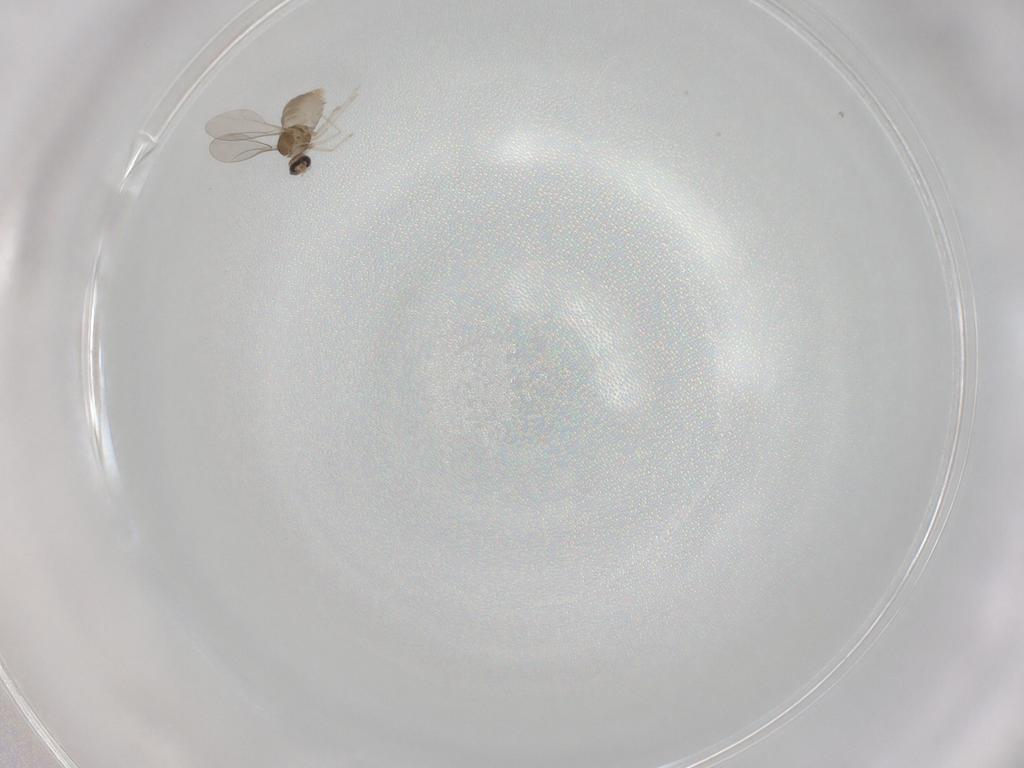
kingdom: Animalia
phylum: Arthropoda
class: Insecta
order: Diptera
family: Cecidomyiidae
